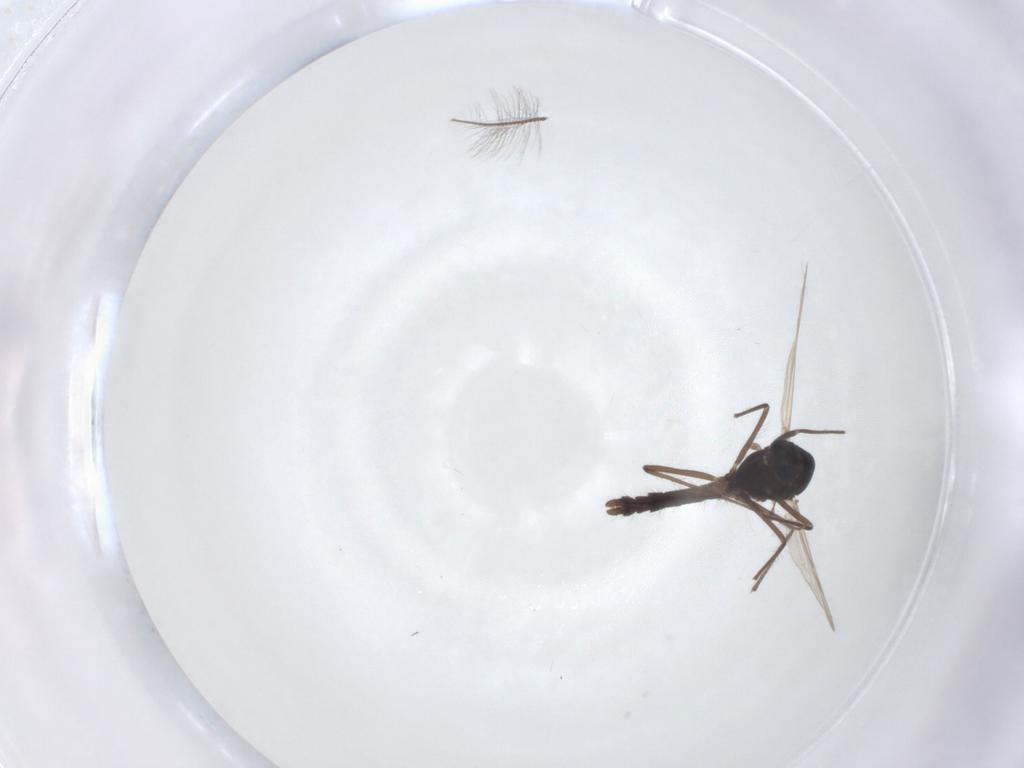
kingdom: Animalia
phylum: Arthropoda
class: Insecta
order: Diptera
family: Chironomidae
